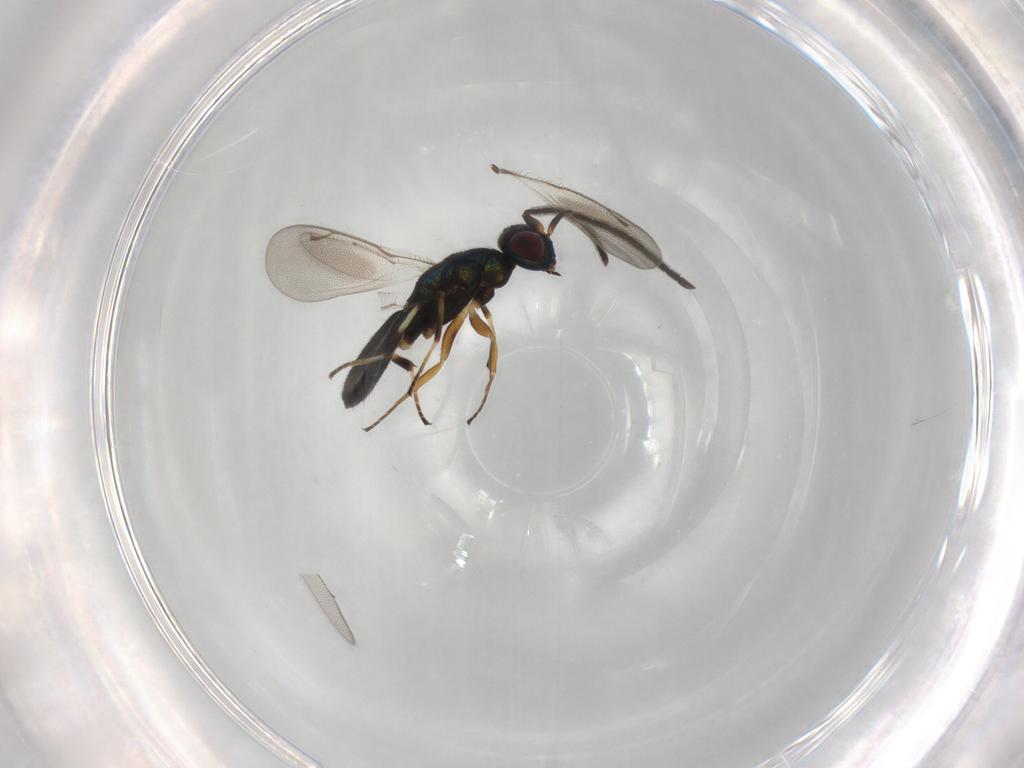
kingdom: Animalia
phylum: Arthropoda
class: Insecta
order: Hymenoptera
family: Eupelmidae
